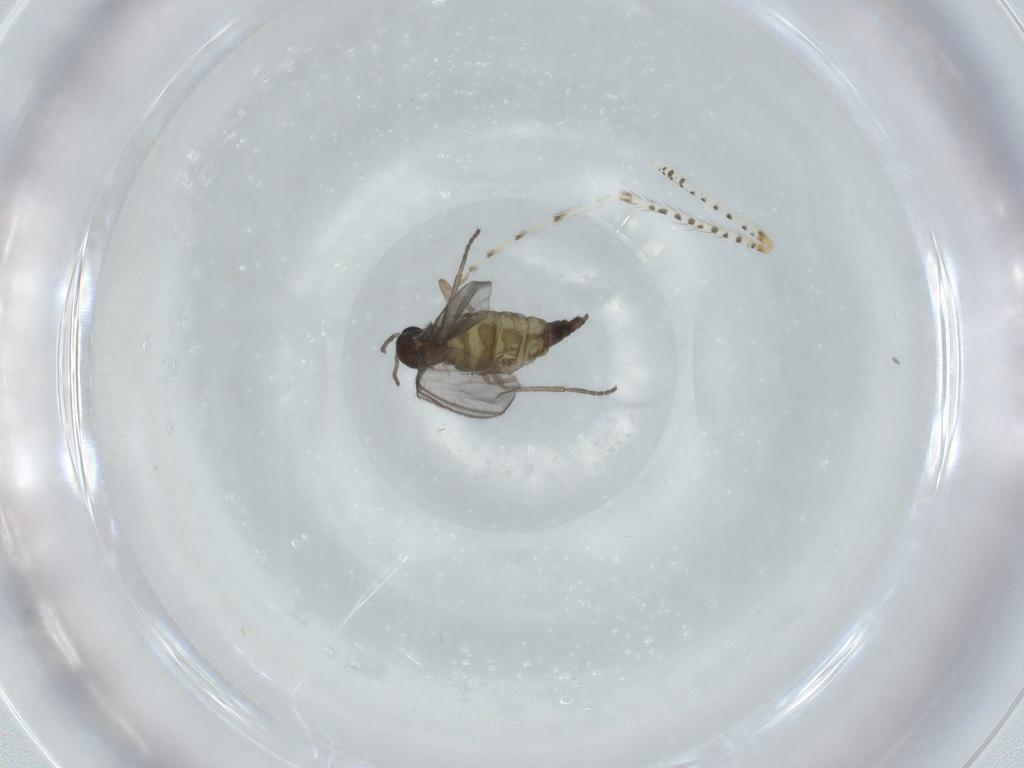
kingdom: Animalia
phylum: Arthropoda
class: Insecta
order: Diptera
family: Sciaridae
